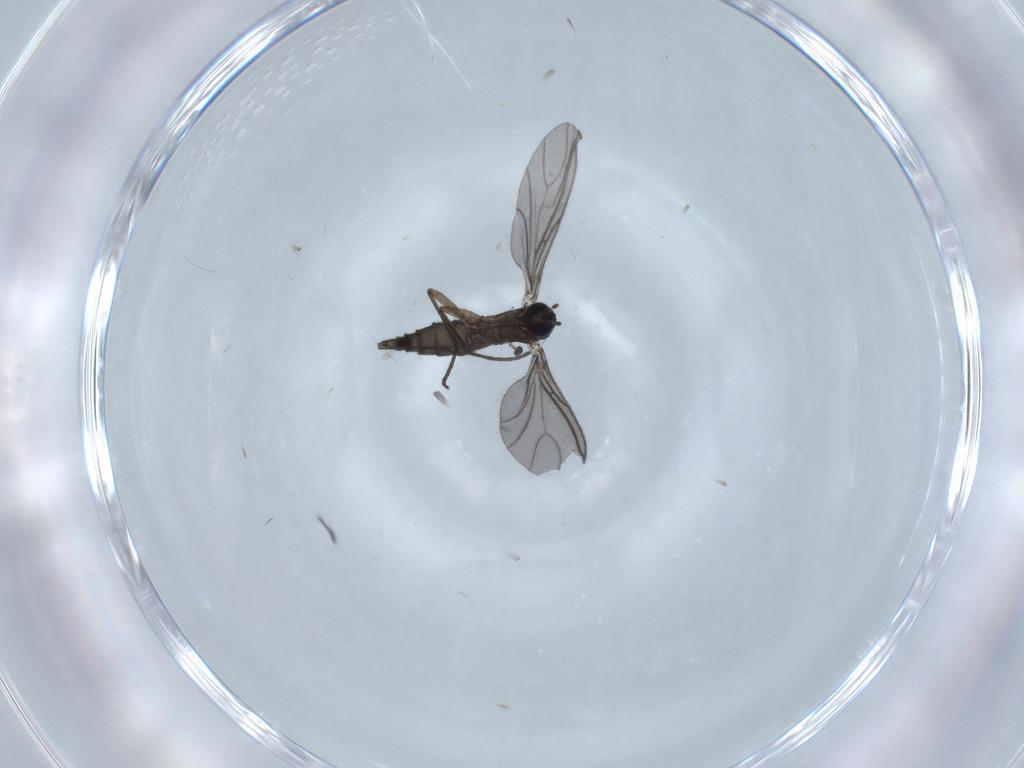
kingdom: Animalia
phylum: Arthropoda
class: Insecta
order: Diptera
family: Sciaridae
